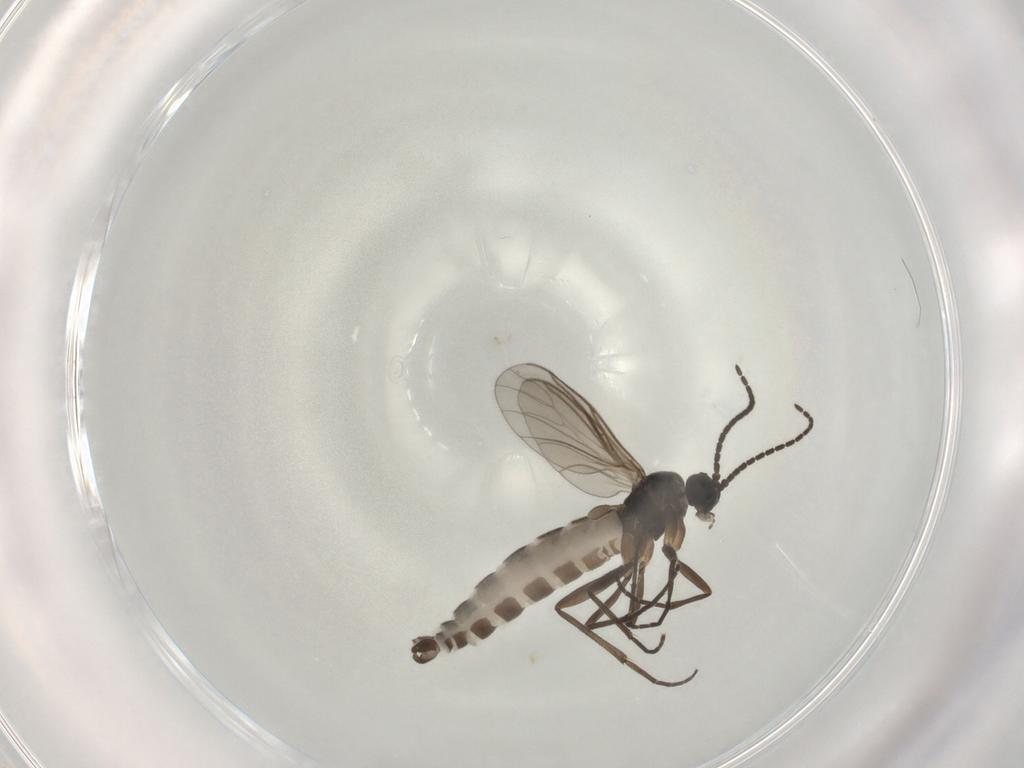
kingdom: Animalia
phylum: Arthropoda
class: Insecta
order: Diptera
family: Sciaridae
